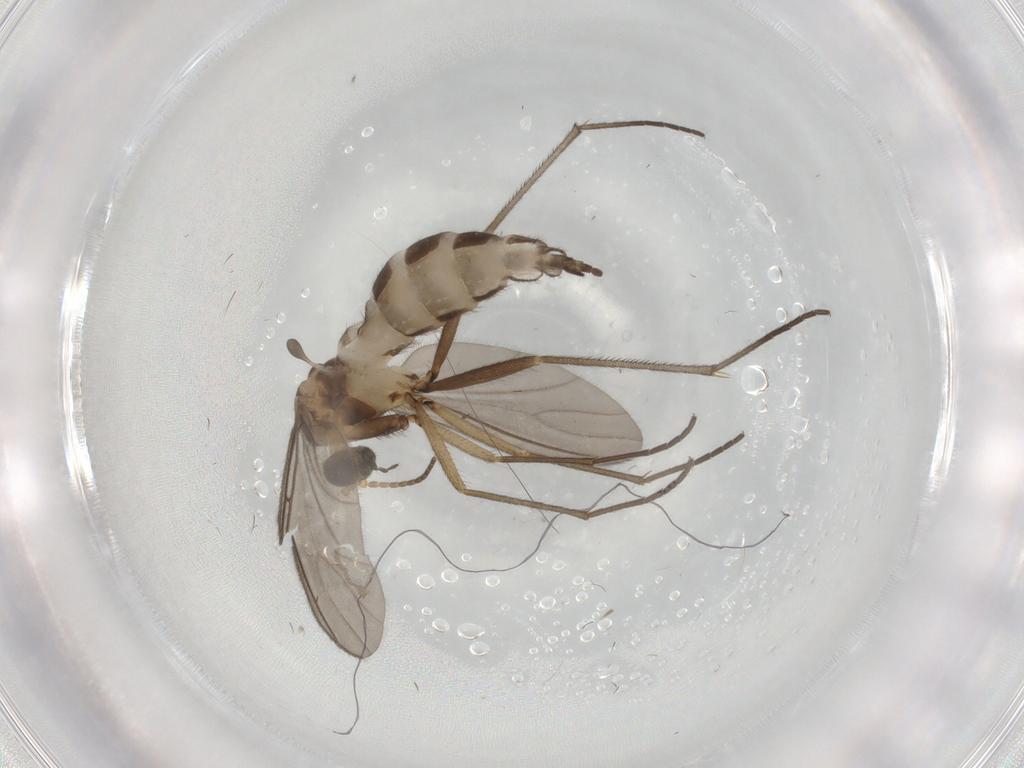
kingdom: Animalia
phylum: Arthropoda
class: Insecta
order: Diptera
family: Sciaridae
